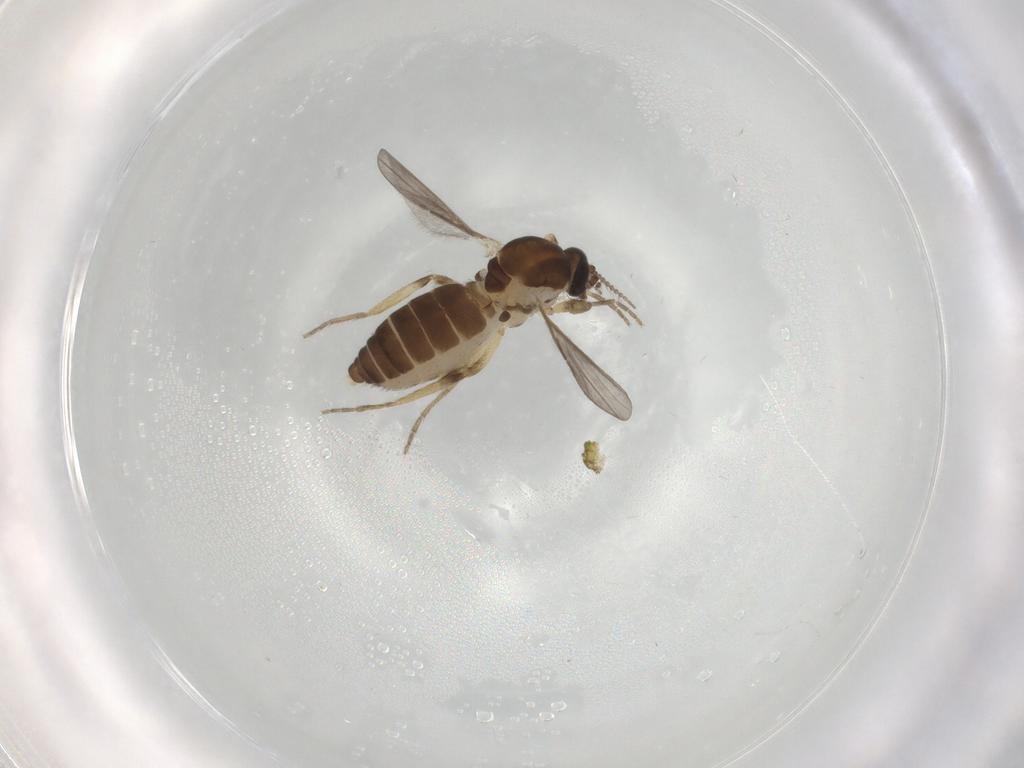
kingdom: Animalia
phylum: Arthropoda
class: Insecta
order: Diptera
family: Ceratopogonidae
